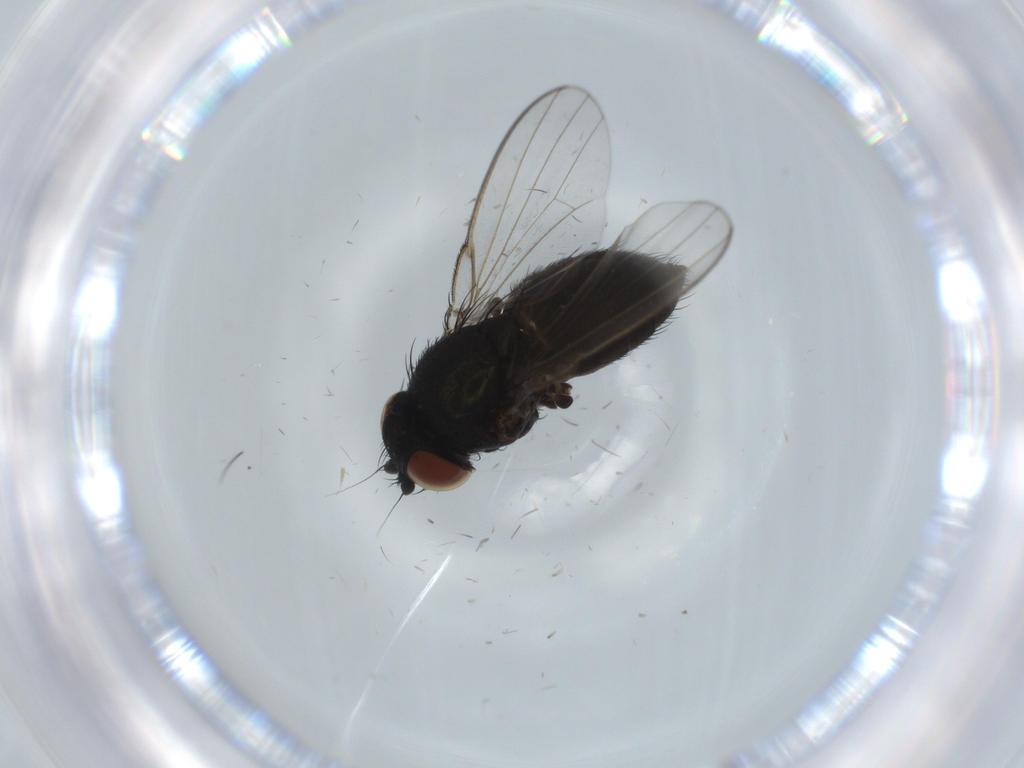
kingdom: Animalia
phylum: Arthropoda
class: Insecta
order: Diptera
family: Milichiidae
